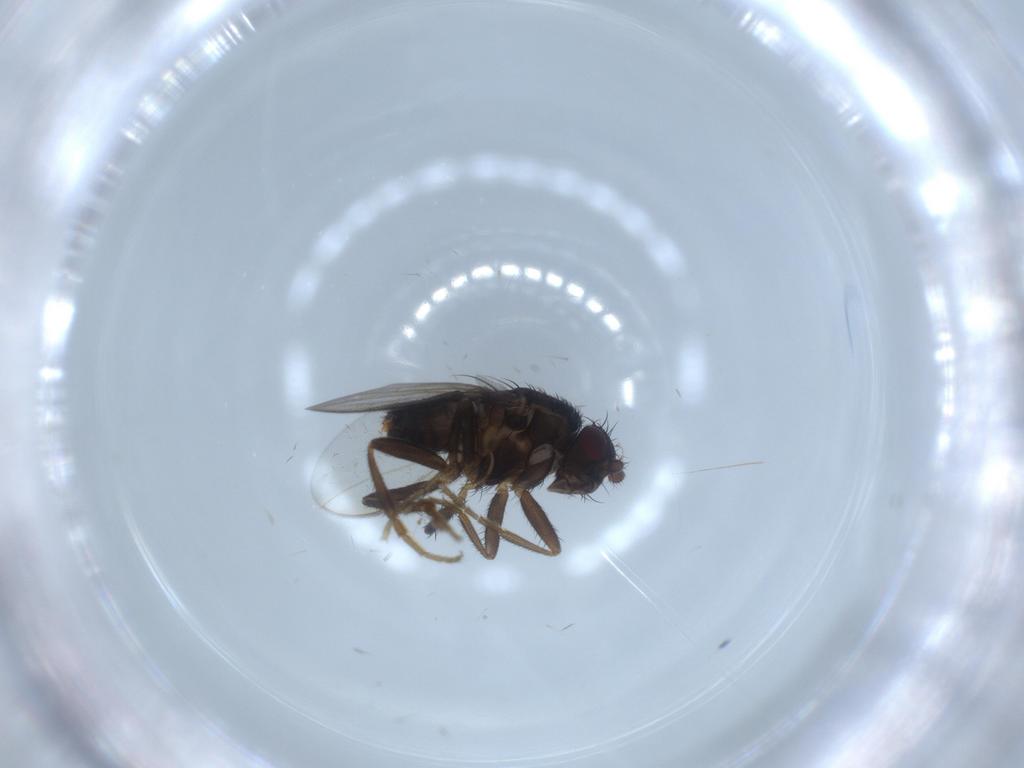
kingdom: Animalia
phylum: Arthropoda
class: Insecta
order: Diptera
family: Sphaeroceridae
